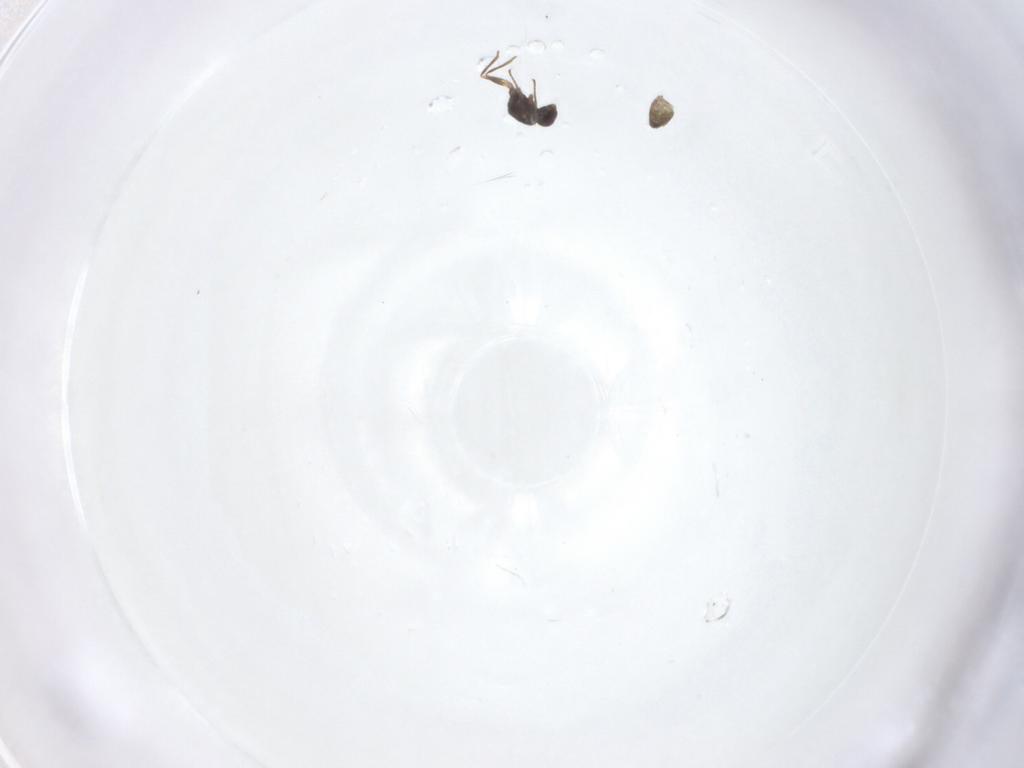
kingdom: Animalia
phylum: Arthropoda
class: Insecta
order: Hymenoptera
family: Mymaridae
